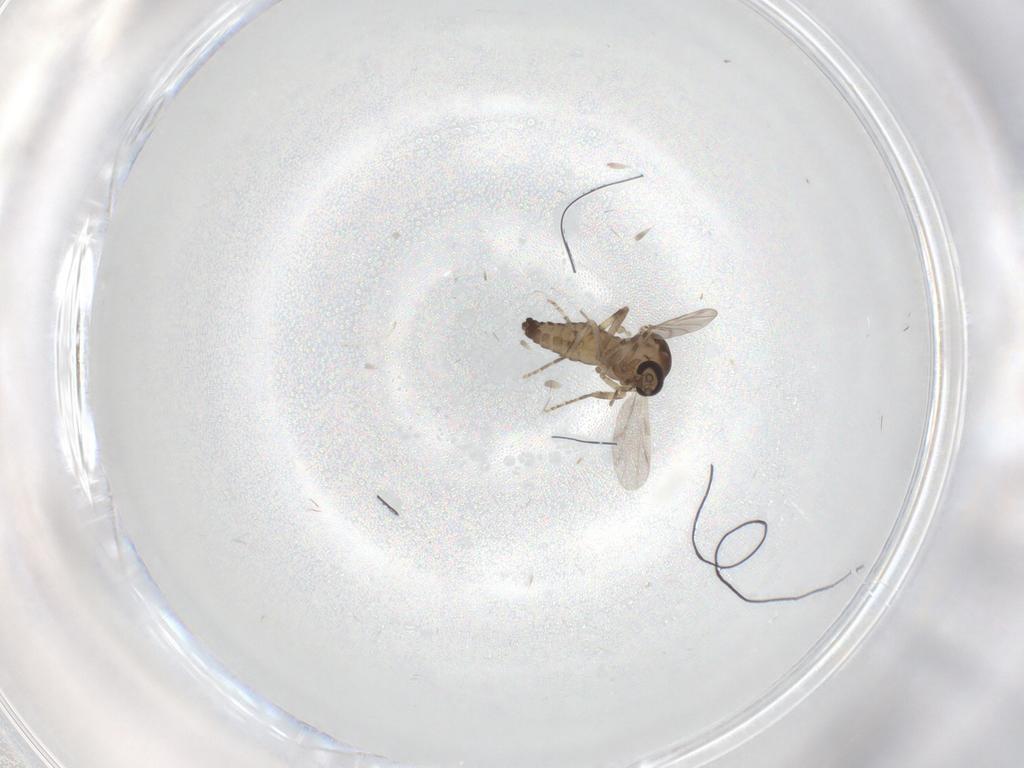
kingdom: Animalia
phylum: Arthropoda
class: Insecta
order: Diptera
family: Ceratopogonidae
